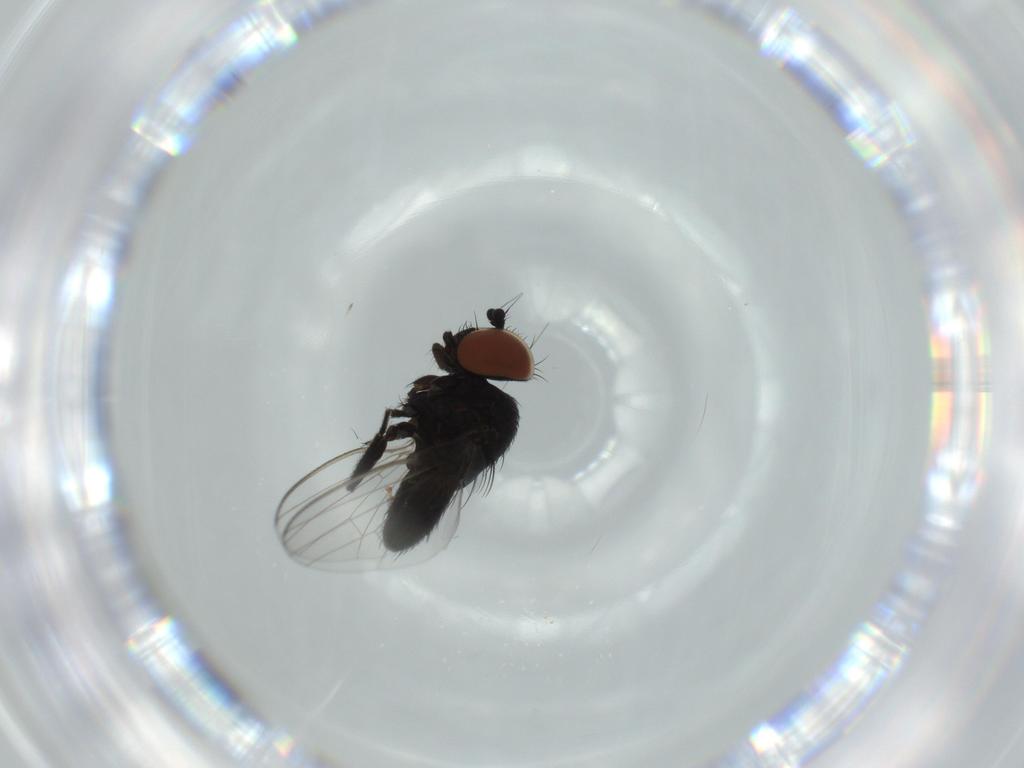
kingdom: Animalia
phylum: Arthropoda
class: Insecta
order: Diptera
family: Milichiidae
